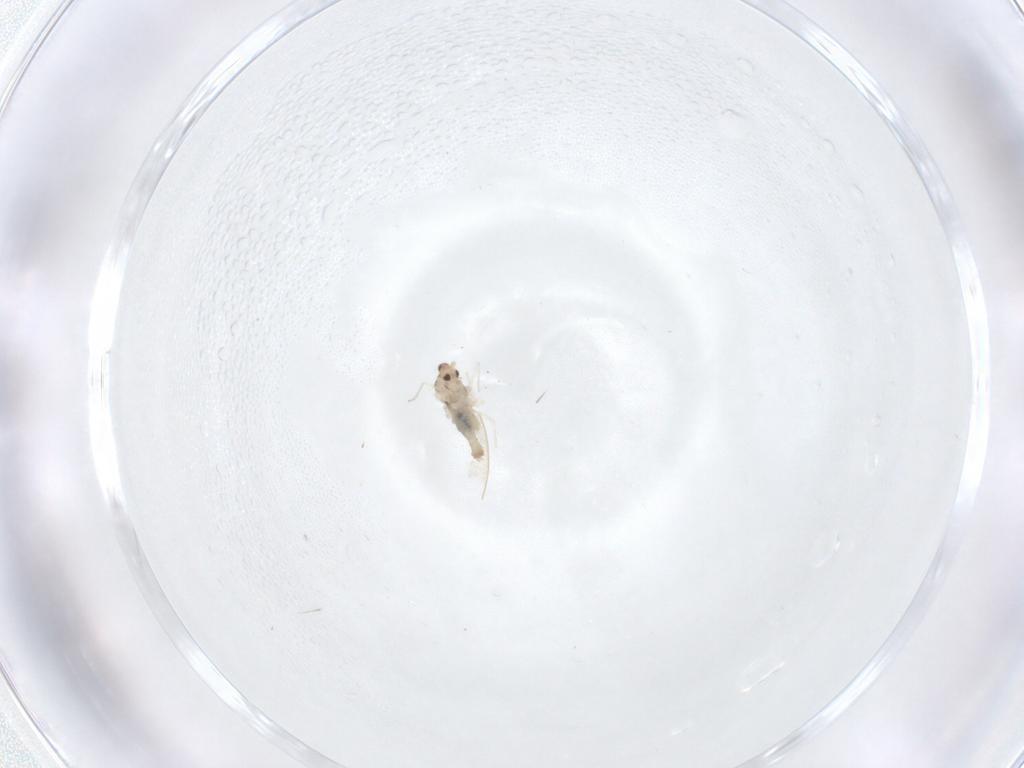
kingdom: Animalia
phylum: Arthropoda
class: Insecta
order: Diptera
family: Cecidomyiidae
